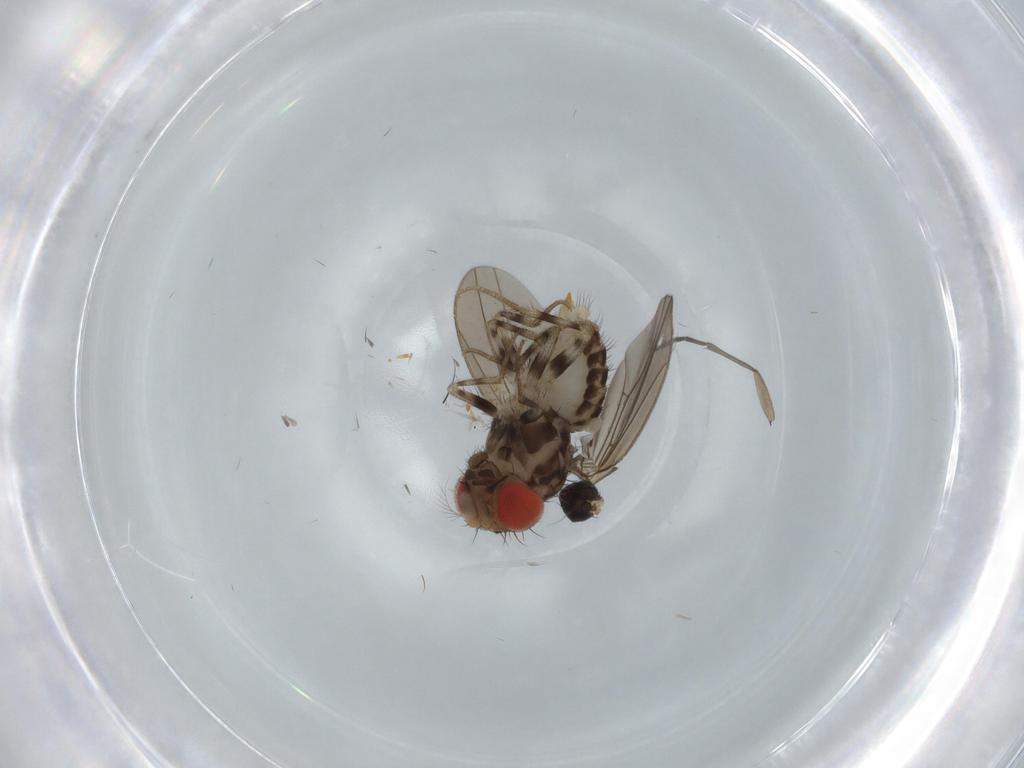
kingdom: Animalia
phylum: Arthropoda
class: Insecta
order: Diptera
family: Drosophilidae
